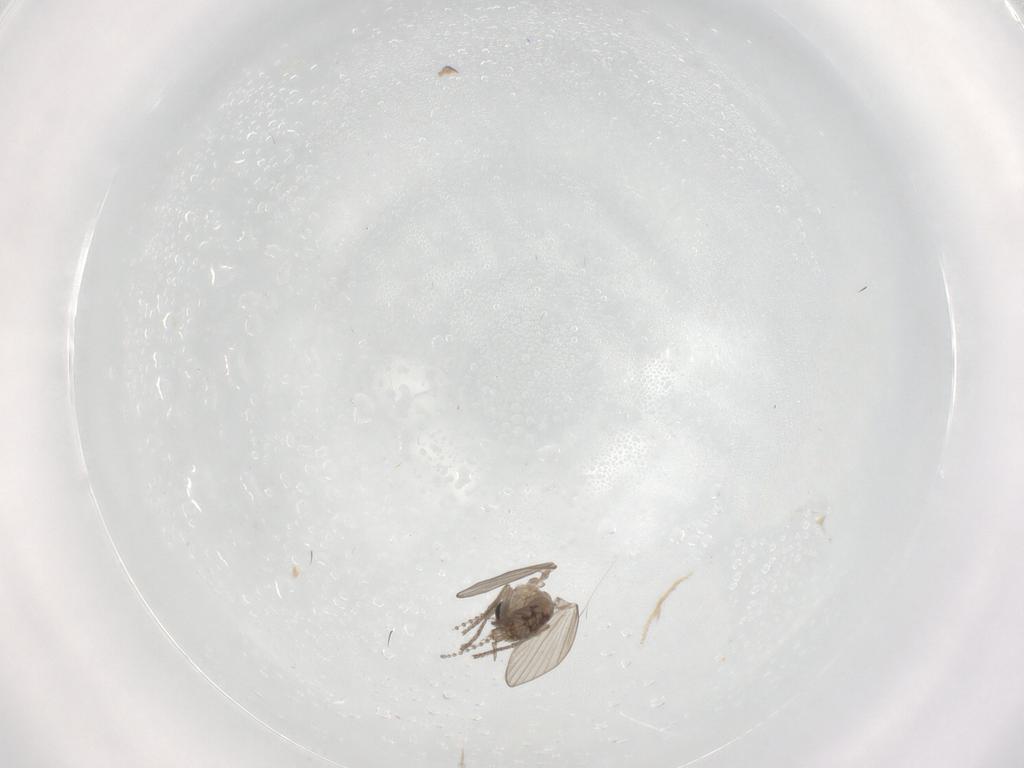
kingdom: Animalia
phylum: Arthropoda
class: Insecta
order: Diptera
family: Psychodidae
